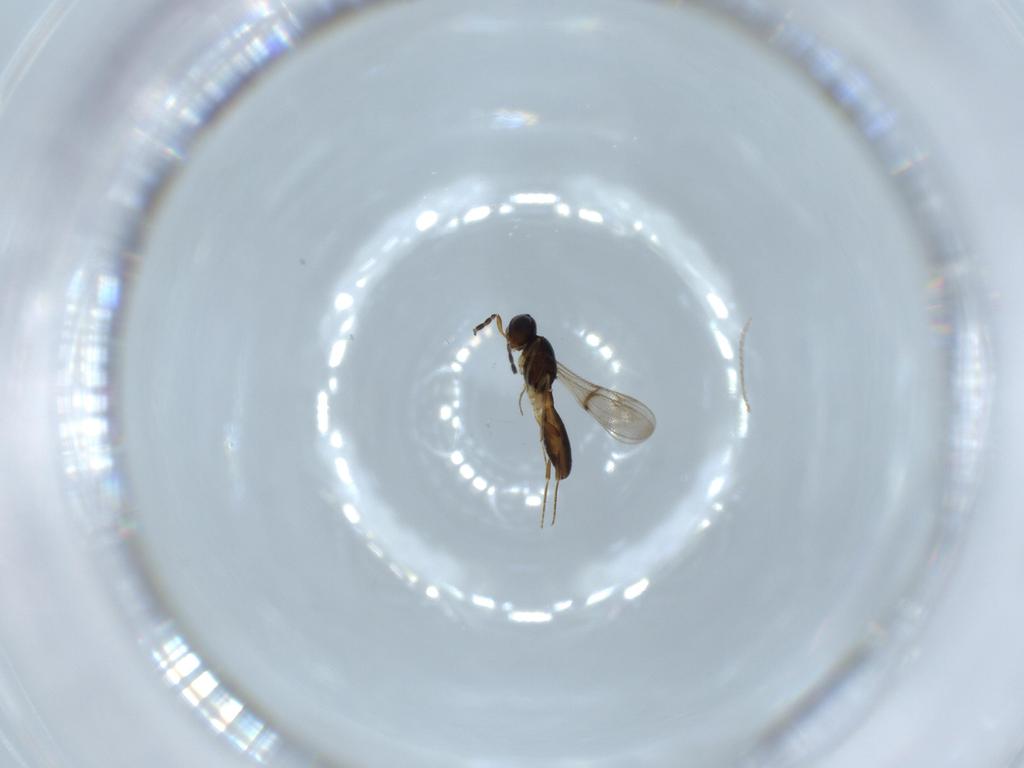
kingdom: Animalia
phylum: Arthropoda
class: Insecta
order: Hymenoptera
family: Scelionidae
